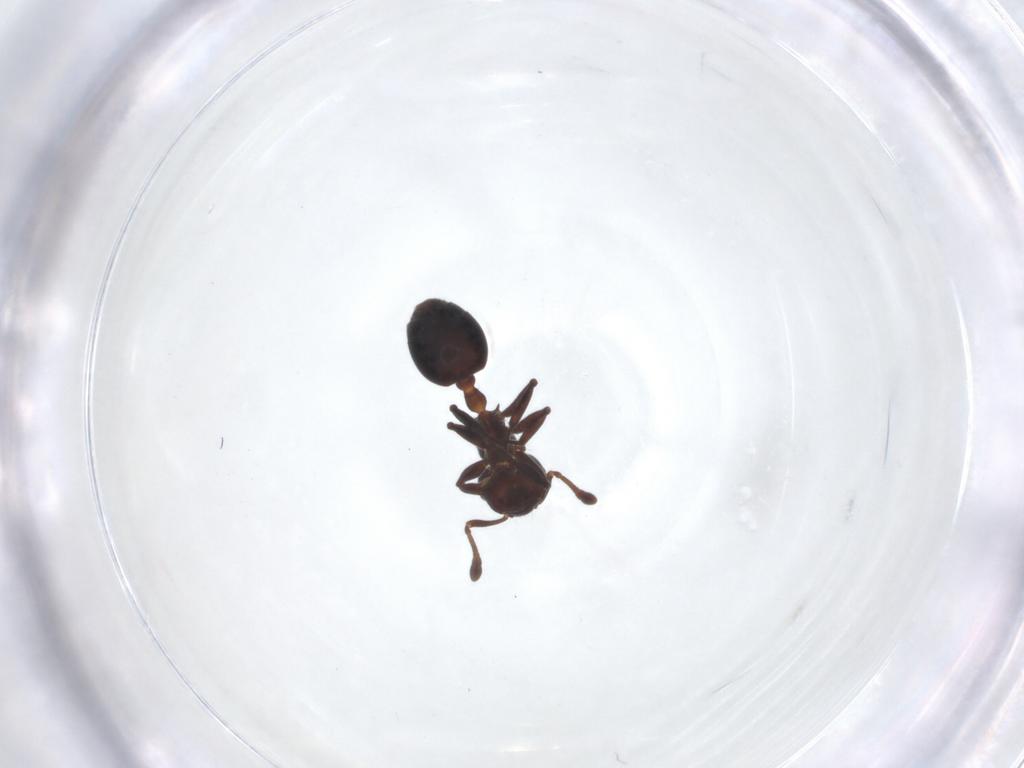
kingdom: Animalia
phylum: Arthropoda
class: Insecta
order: Hymenoptera
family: Formicidae
